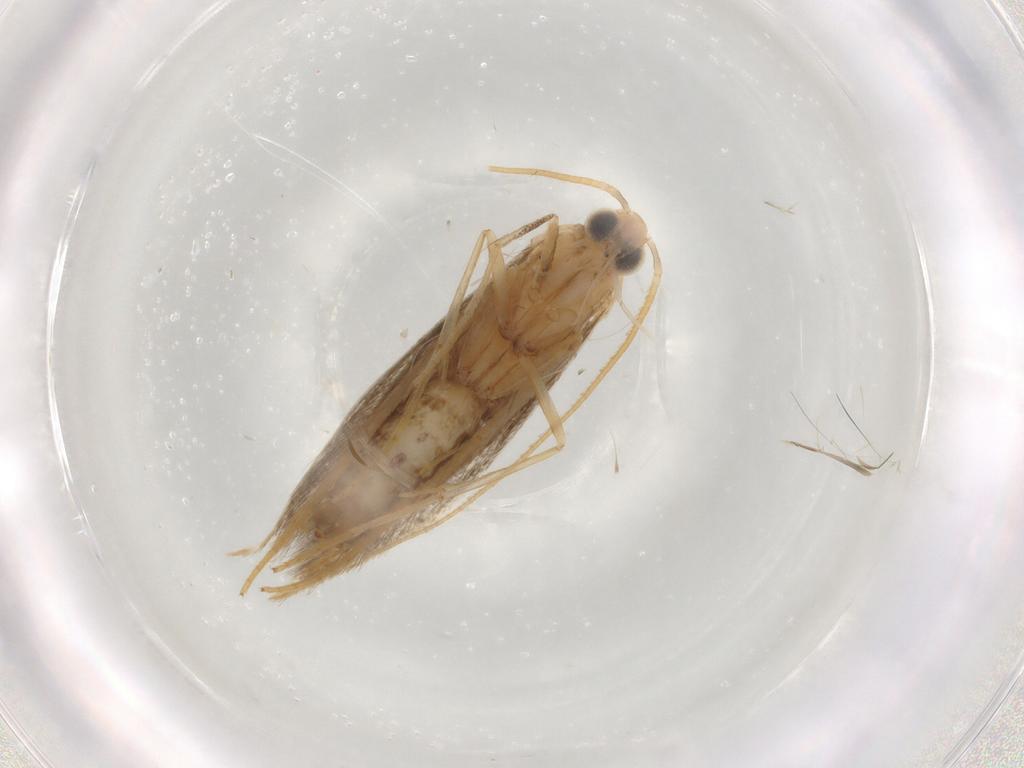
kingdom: Animalia
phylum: Arthropoda
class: Insecta
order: Lepidoptera
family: Coleophoridae
